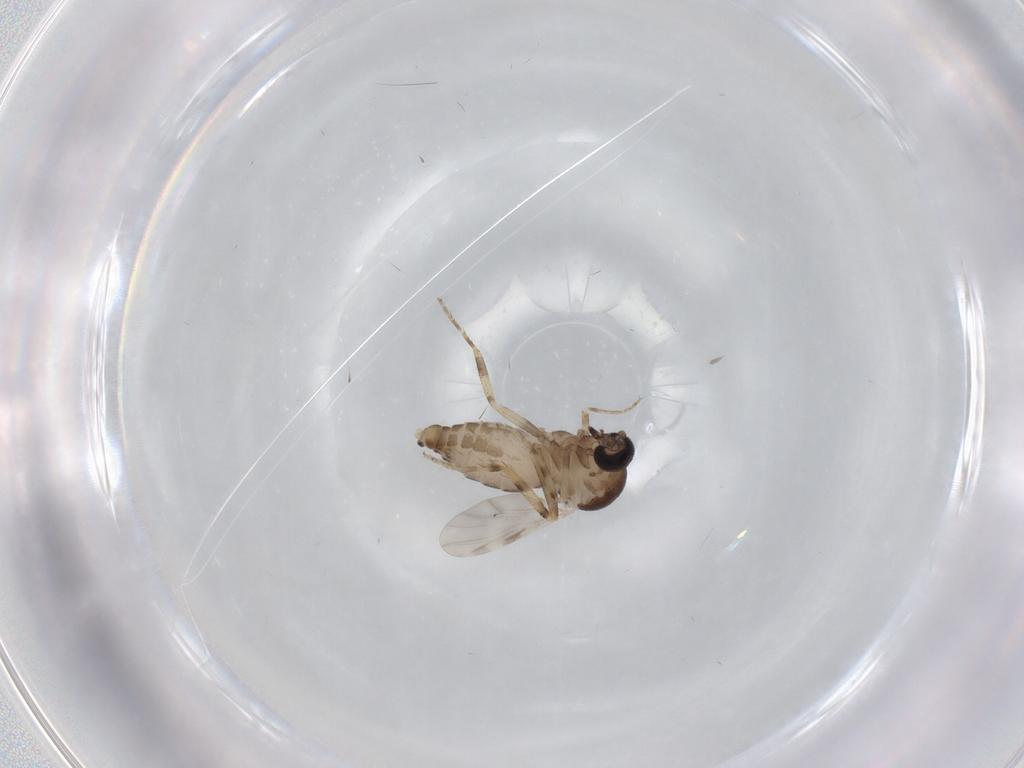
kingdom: Animalia
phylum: Arthropoda
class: Insecta
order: Diptera
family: Ceratopogonidae
